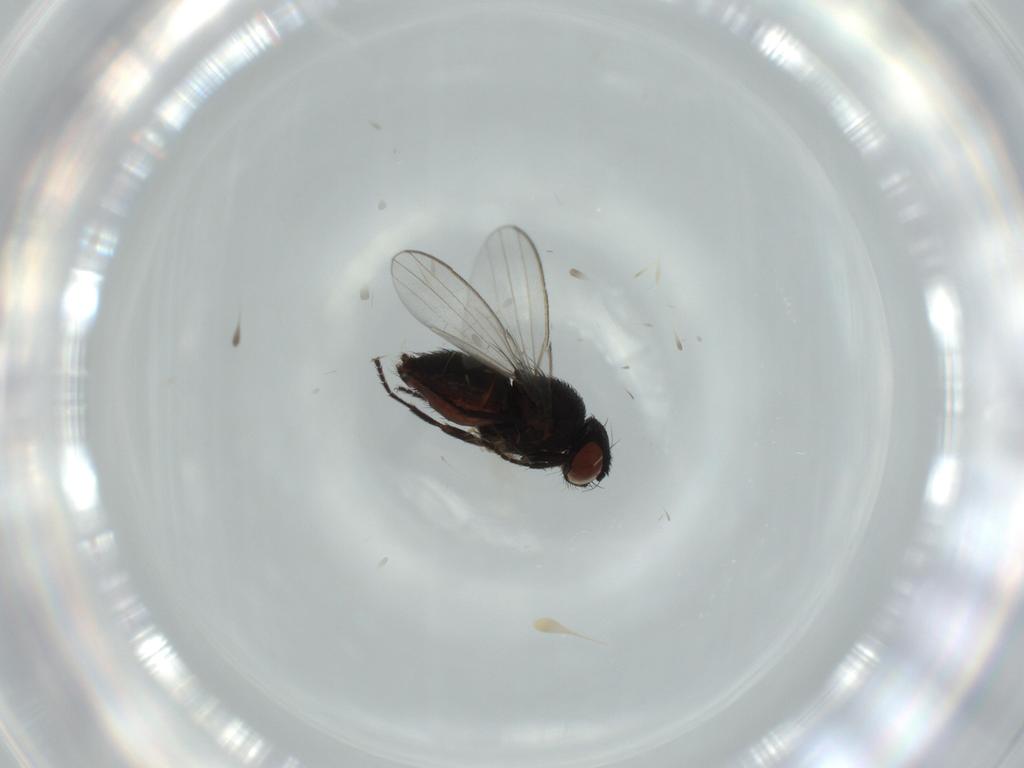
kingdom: Animalia
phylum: Arthropoda
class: Insecta
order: Diptera
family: Milichiidae
